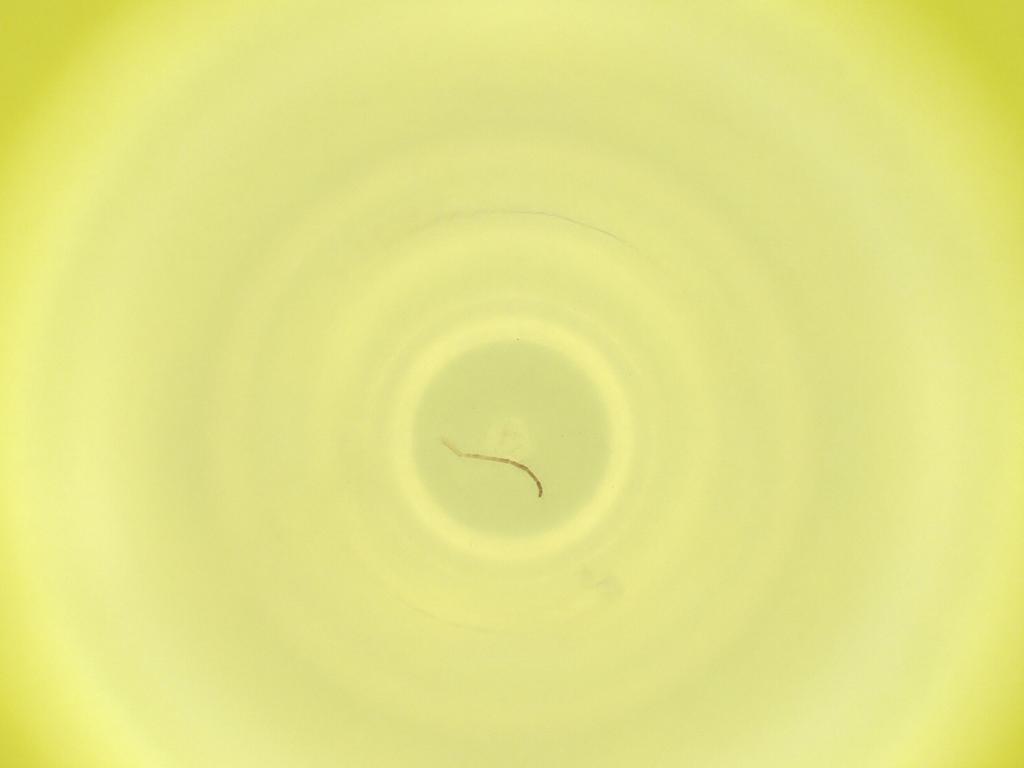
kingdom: Animalia
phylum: Arthropoda
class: Insecta
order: Diptera
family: Cecidomyiidae
